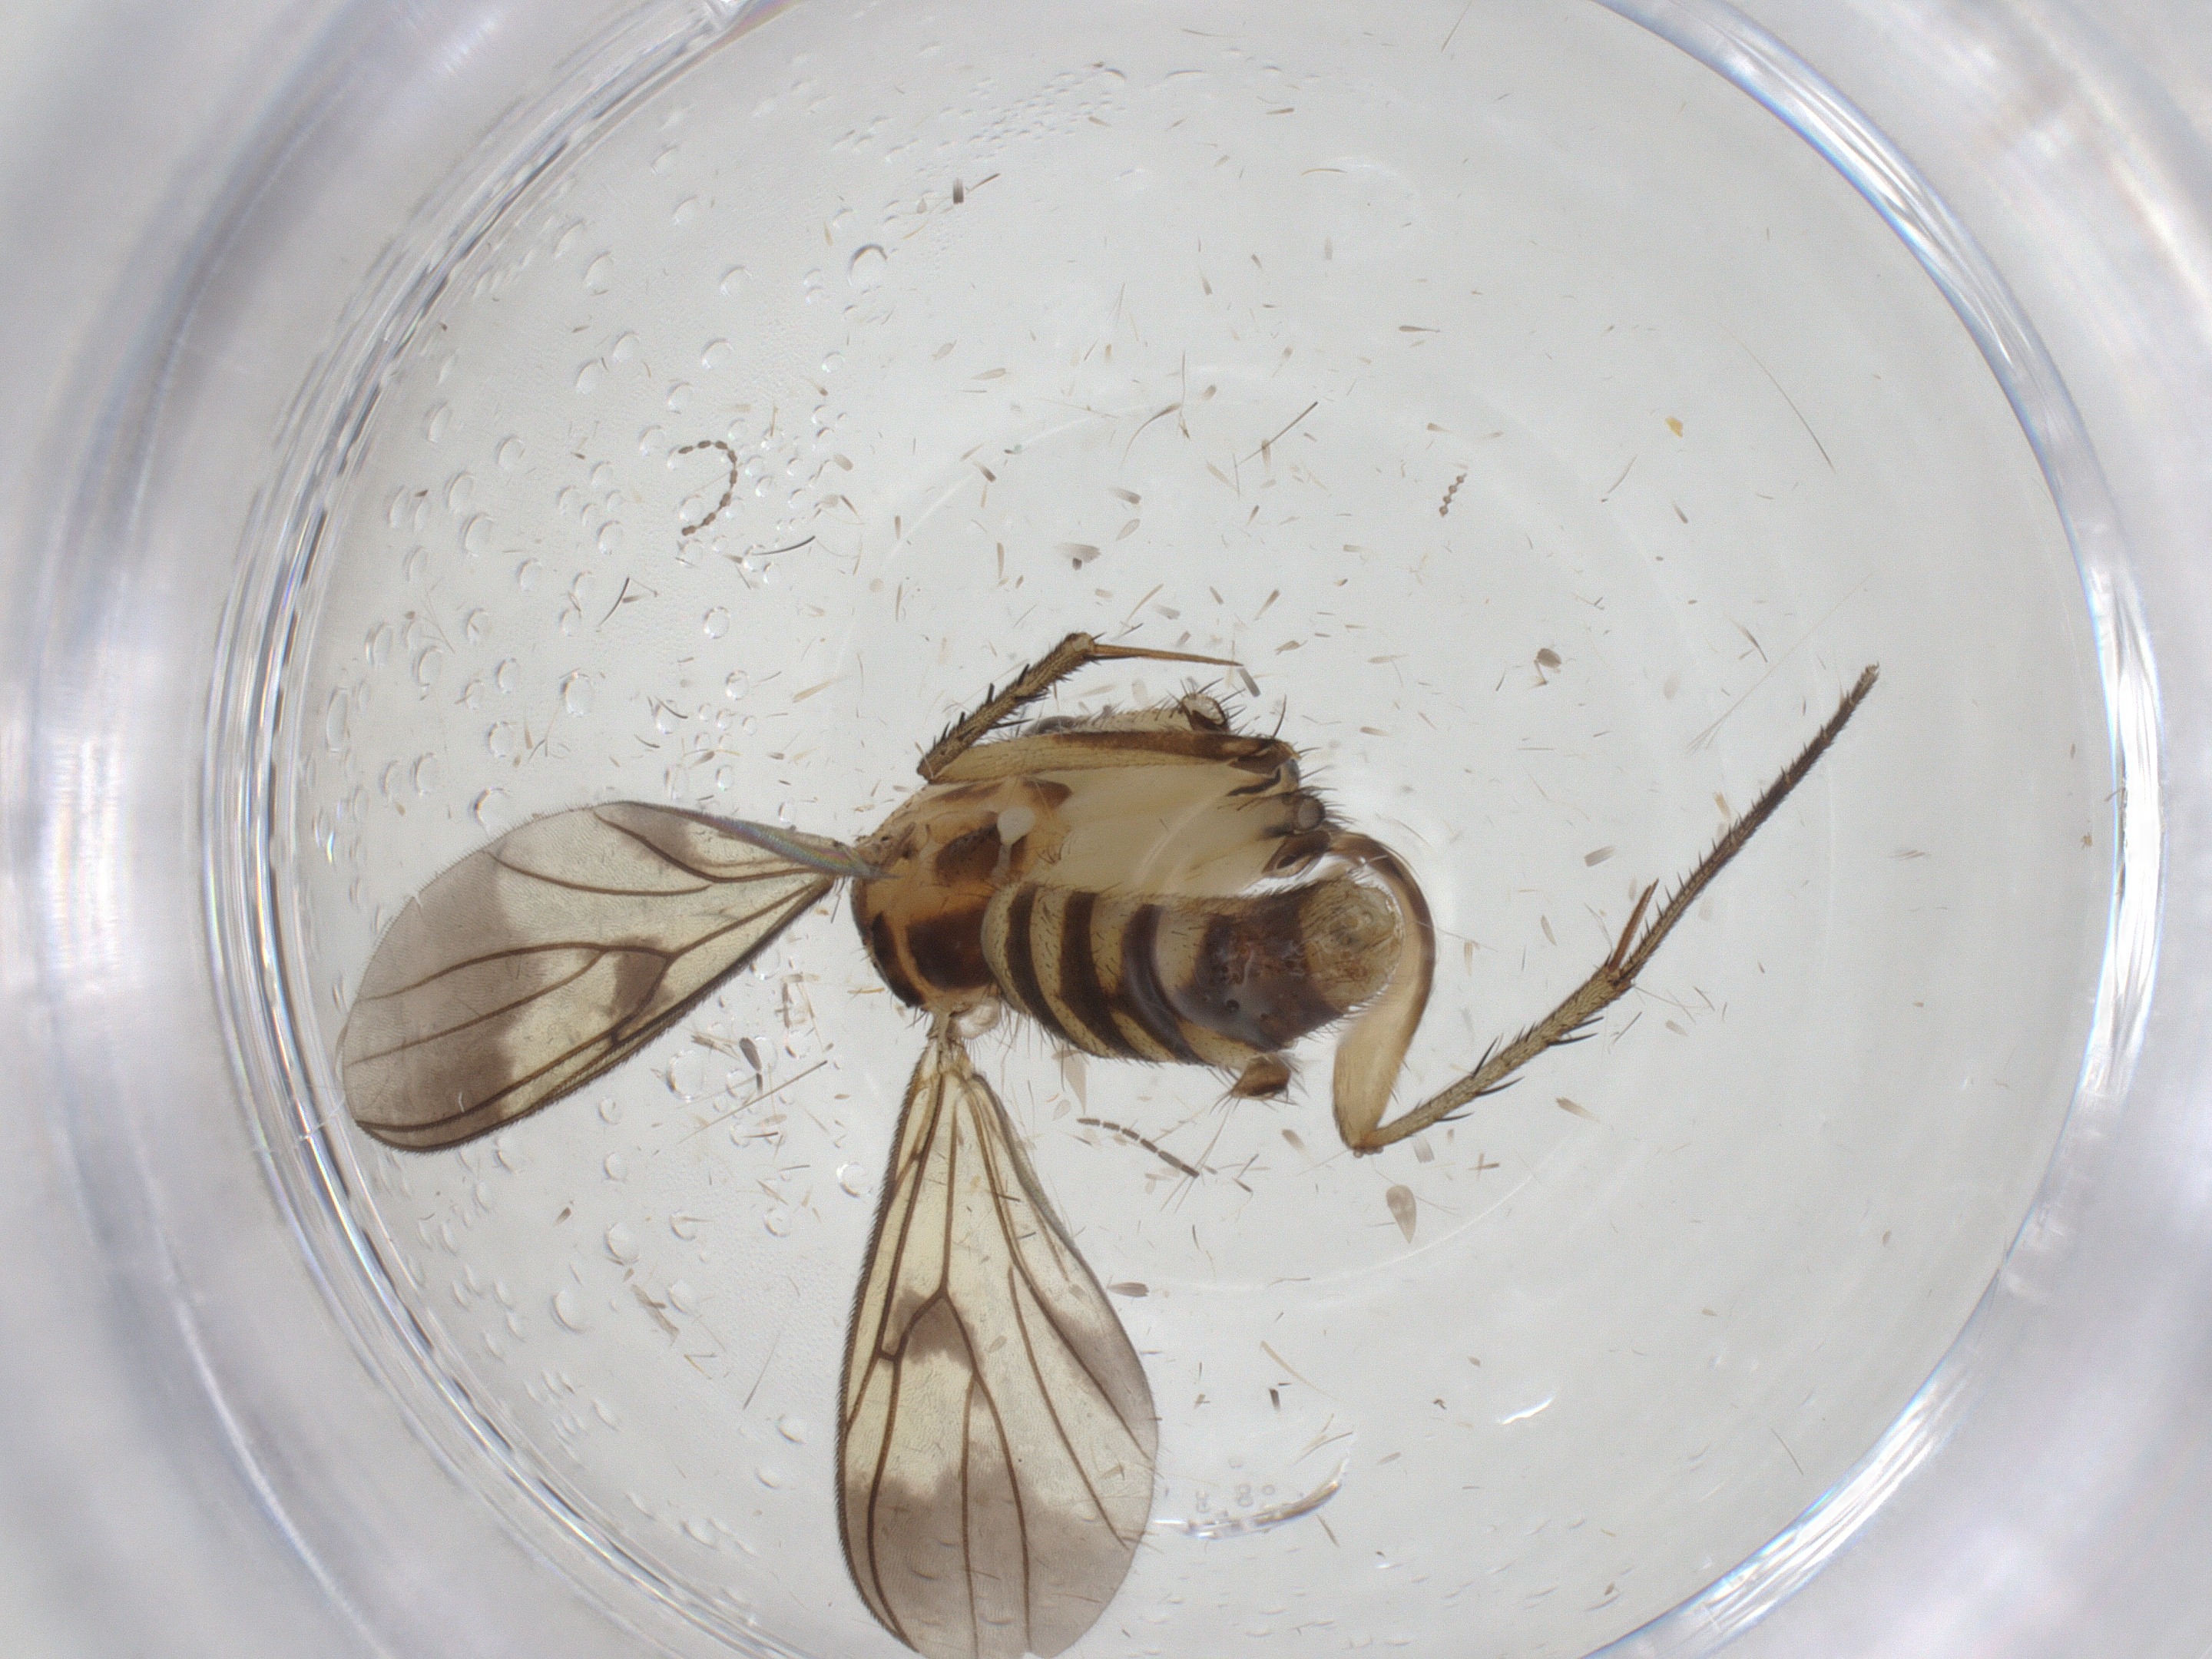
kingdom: Animalia
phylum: Arthropoda
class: Insecta
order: Diptera
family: Mycetophilidae
